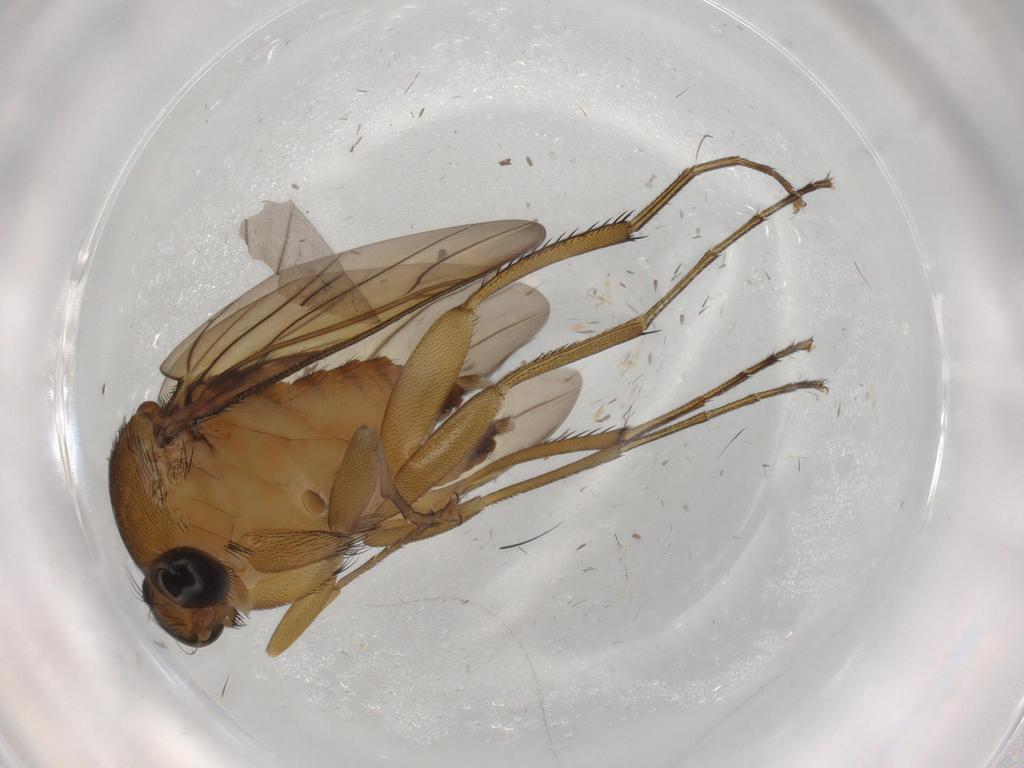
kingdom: Animalia
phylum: Arthropoda
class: Insecta
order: Diptera
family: Phoridae
